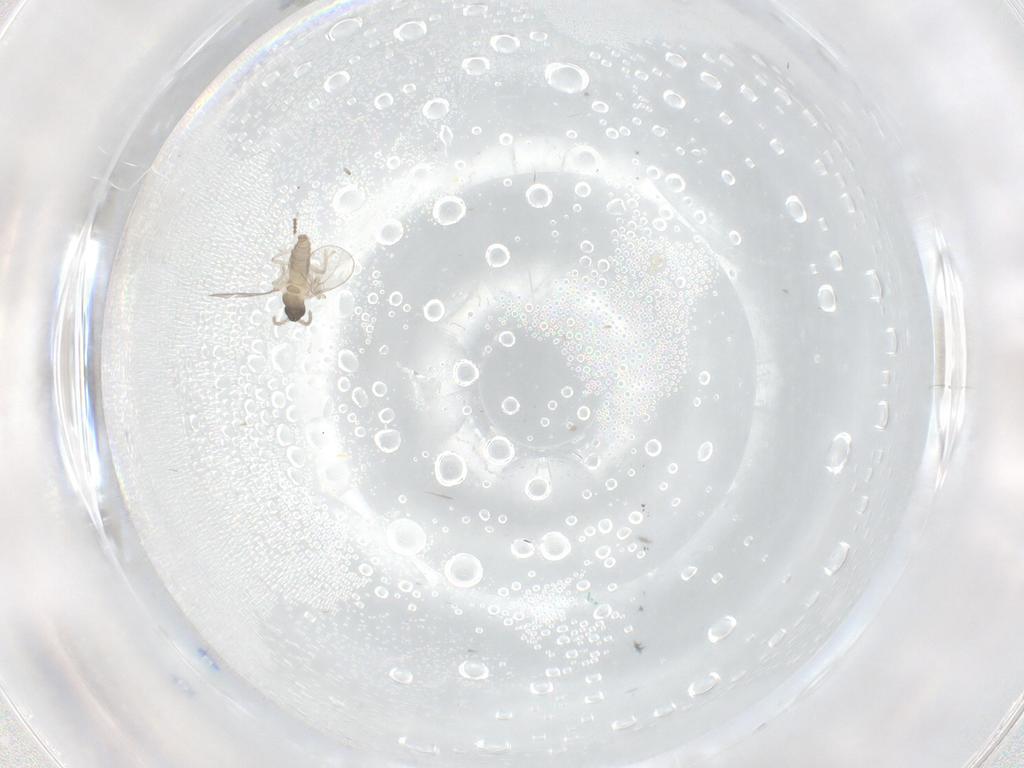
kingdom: Animalia
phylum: Arthropoda
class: Insecta
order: Diptera
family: Cecidomyiidae
